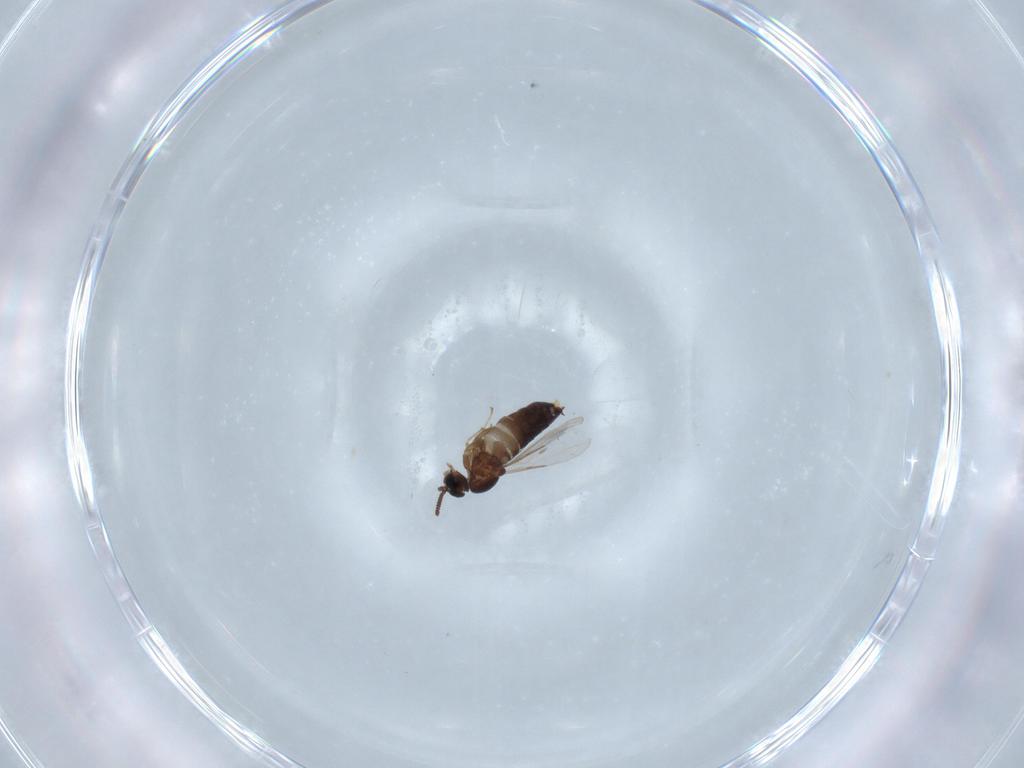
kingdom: Animalia
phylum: Arthropoda
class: Insecta
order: Diptera
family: Scatopsidae
